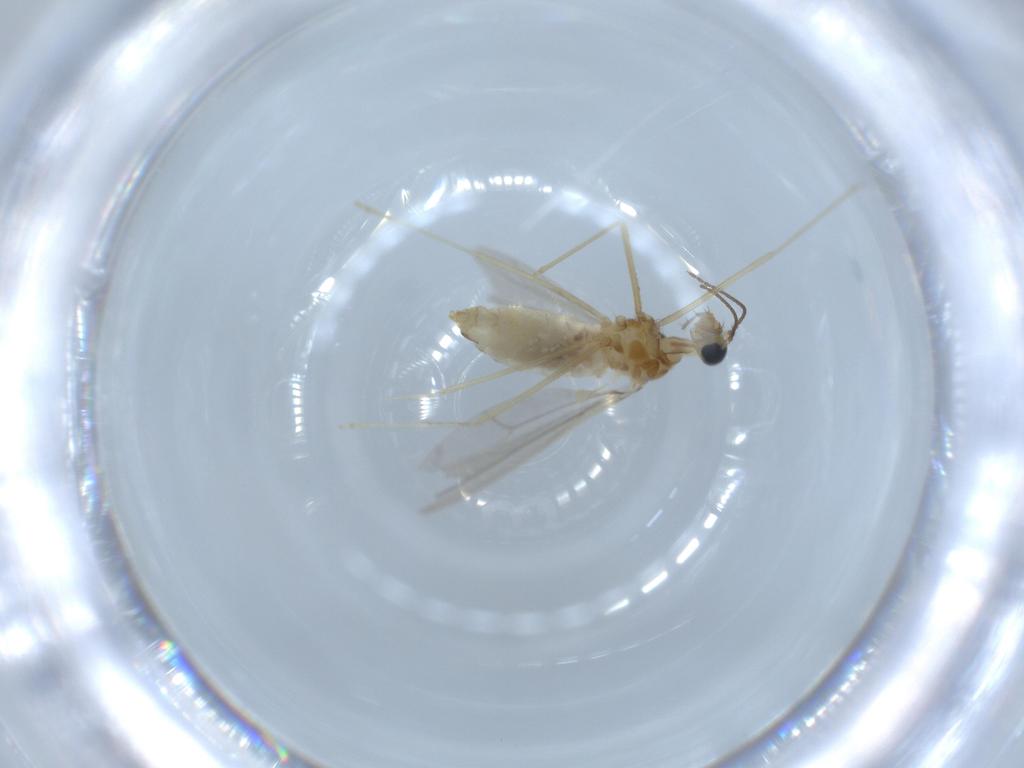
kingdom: Animalia
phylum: Arthropoda
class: Insecta
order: Diptera
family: Cecidomyiidae
